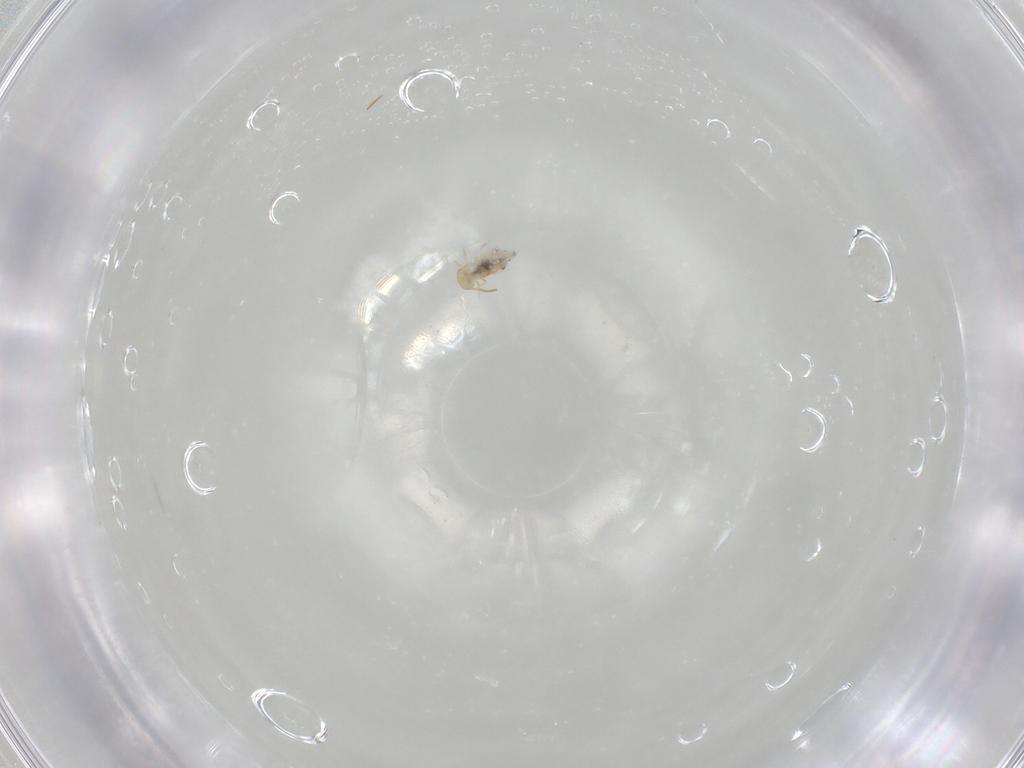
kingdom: Animalia
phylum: Arthropoda
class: Collembola
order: Symphypleona
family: Bourletiellidae
